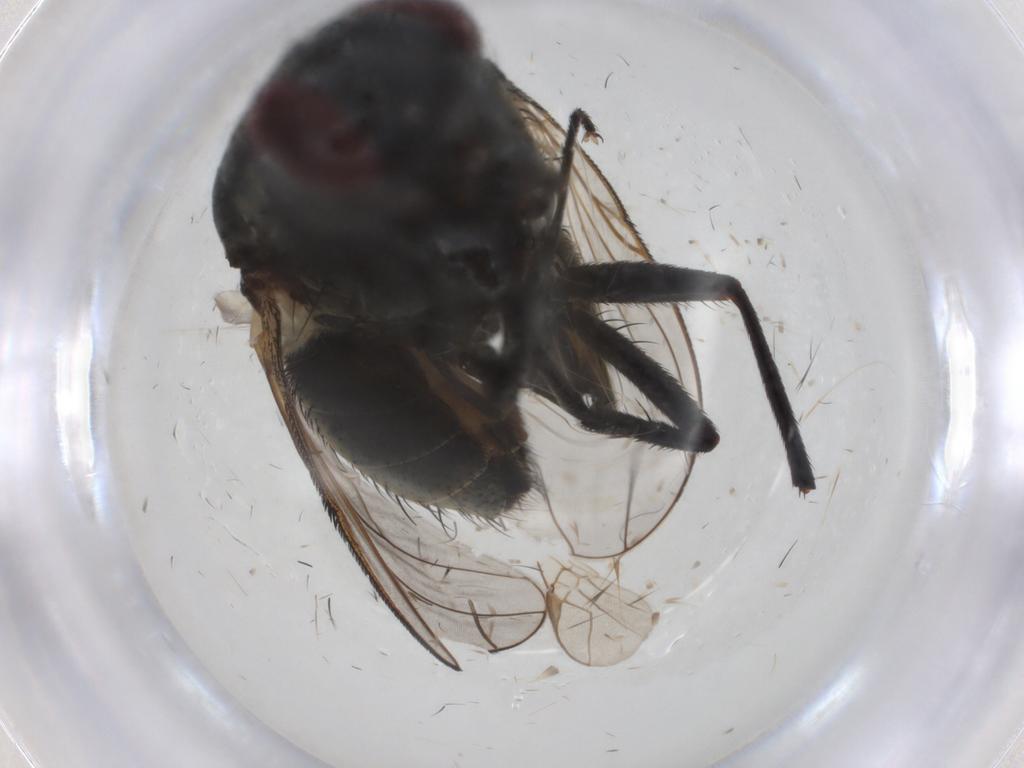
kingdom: Animalia
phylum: Arthropoda
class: Insecta
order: Diptera
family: Muscidae
